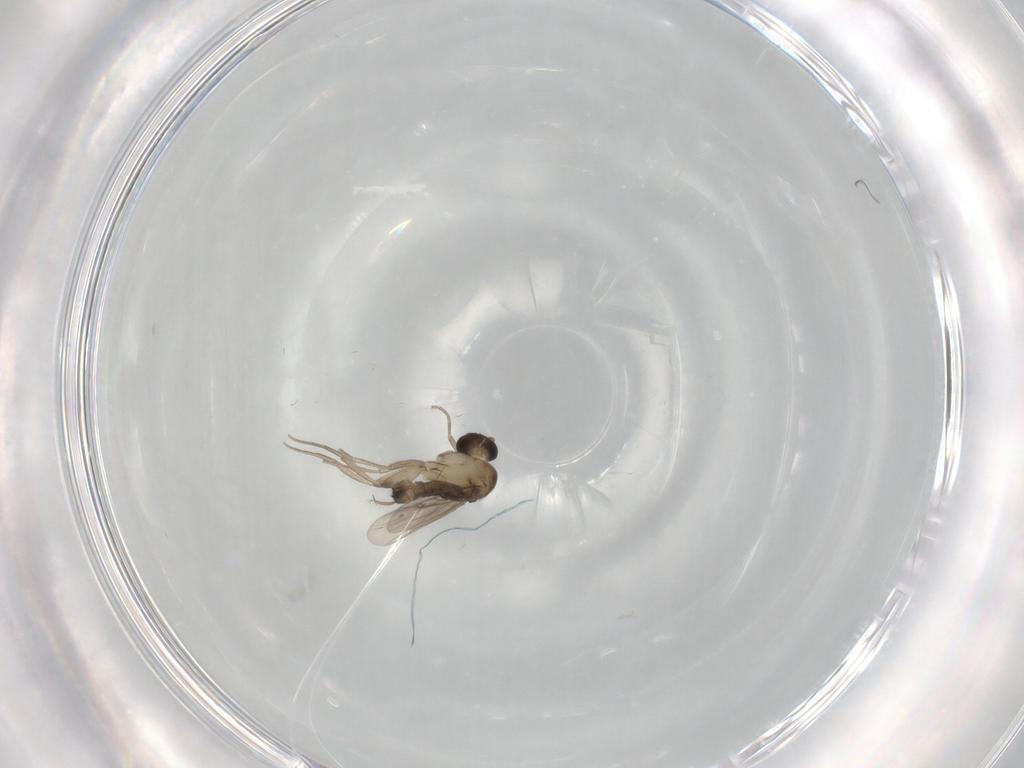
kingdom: Animalia
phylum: Arthropoda
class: Insecta
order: Diptera
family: Phoridae
